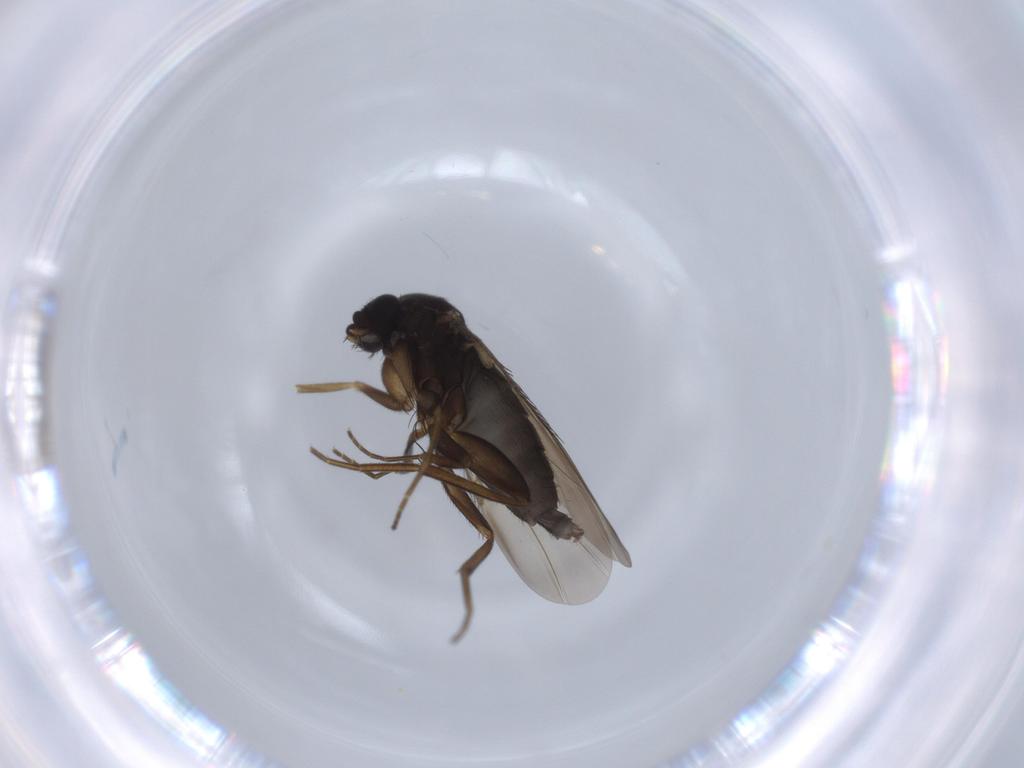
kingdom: Animalia
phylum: Arthropoda
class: Insecta
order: Diptera
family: Phoridae
